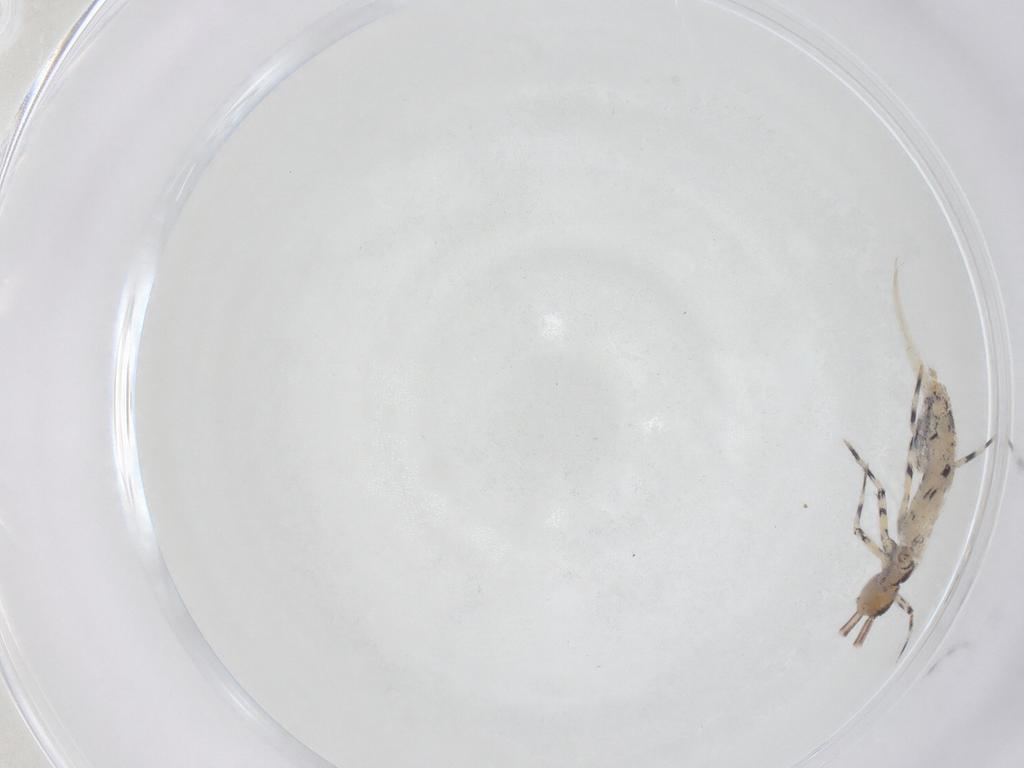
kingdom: Animalia
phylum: Arthropoda
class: Collembola
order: Entomobryomorpha
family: Entomobryidae
